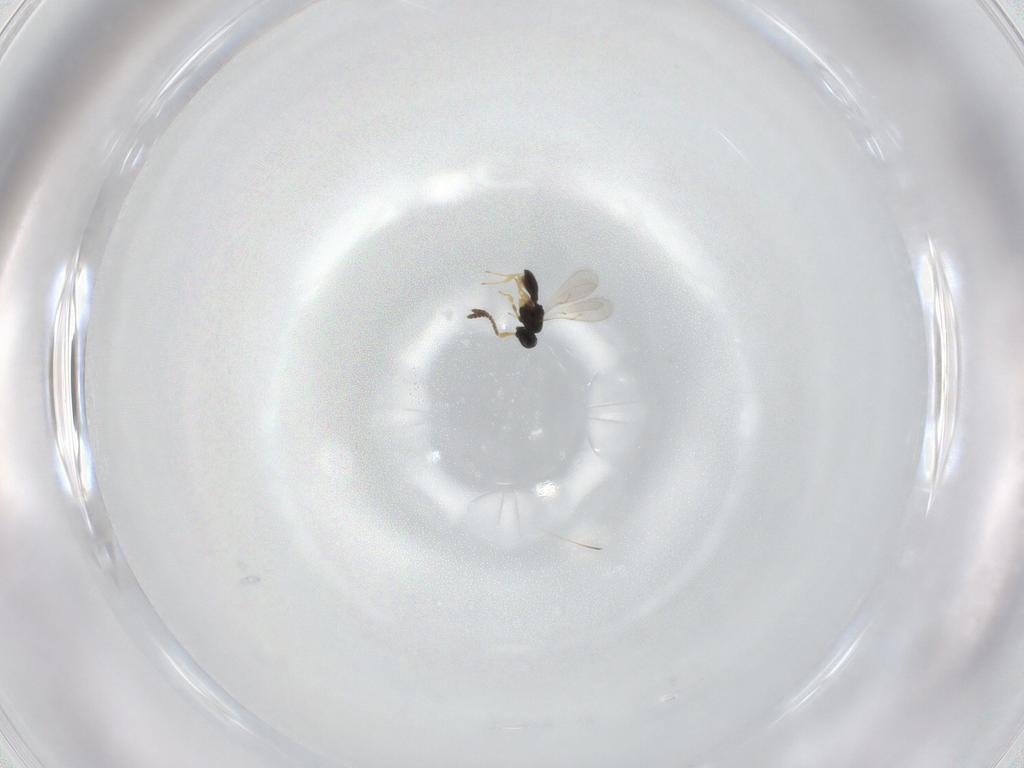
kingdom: Animalia
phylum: Arthropoda
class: Insecta
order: Hymenoptera
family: Scelionidae
